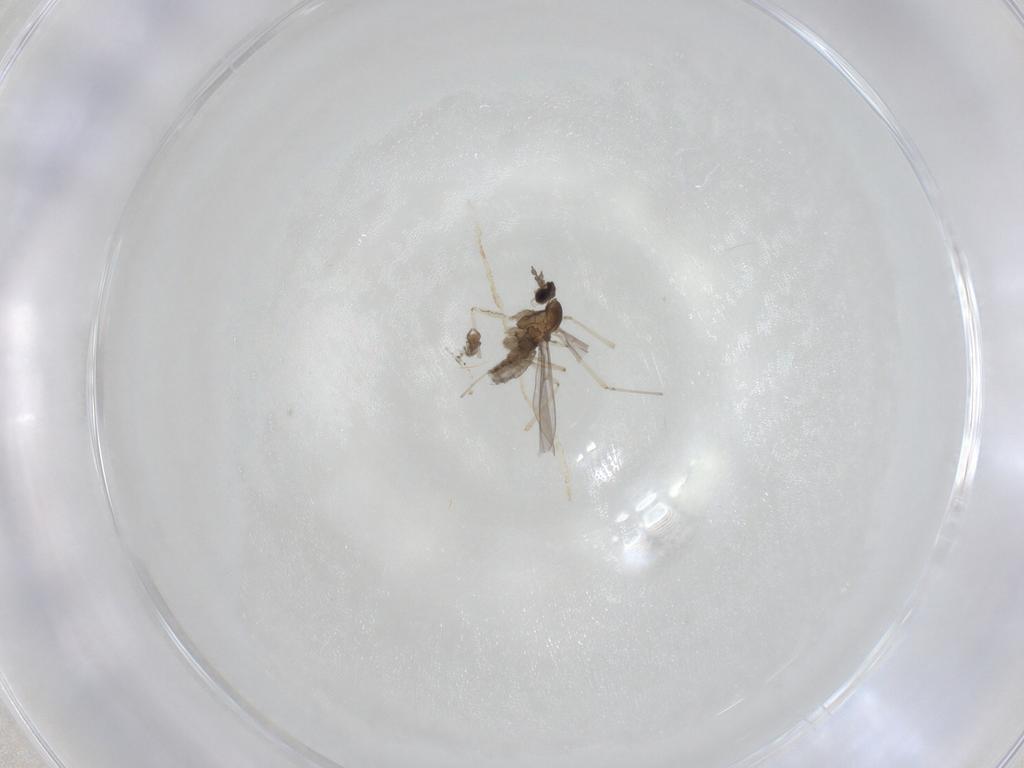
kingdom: Animalia
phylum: Arthropoda
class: Insecta
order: Diptera
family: Cecidomyiidae
